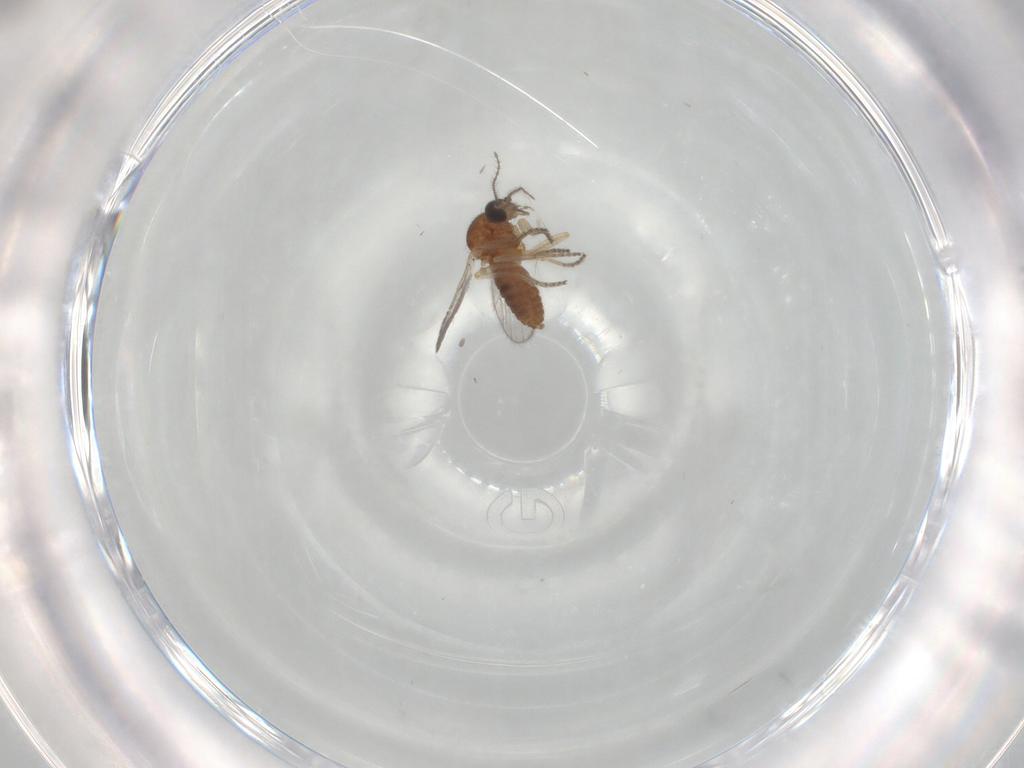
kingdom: Animalia
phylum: Arthropoda
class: Insecta
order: Diptera
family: Ceratopogonidae
